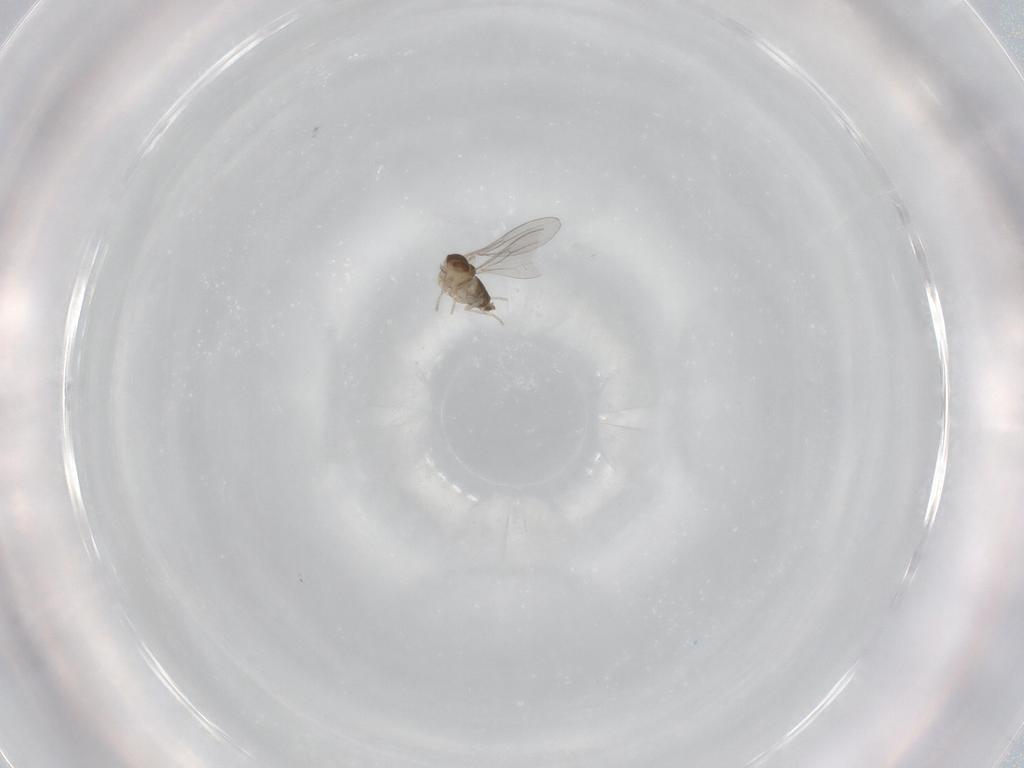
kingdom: Animalia
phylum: Arthropoda
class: Insecta
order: Diptera
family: Cecidomyiidae
